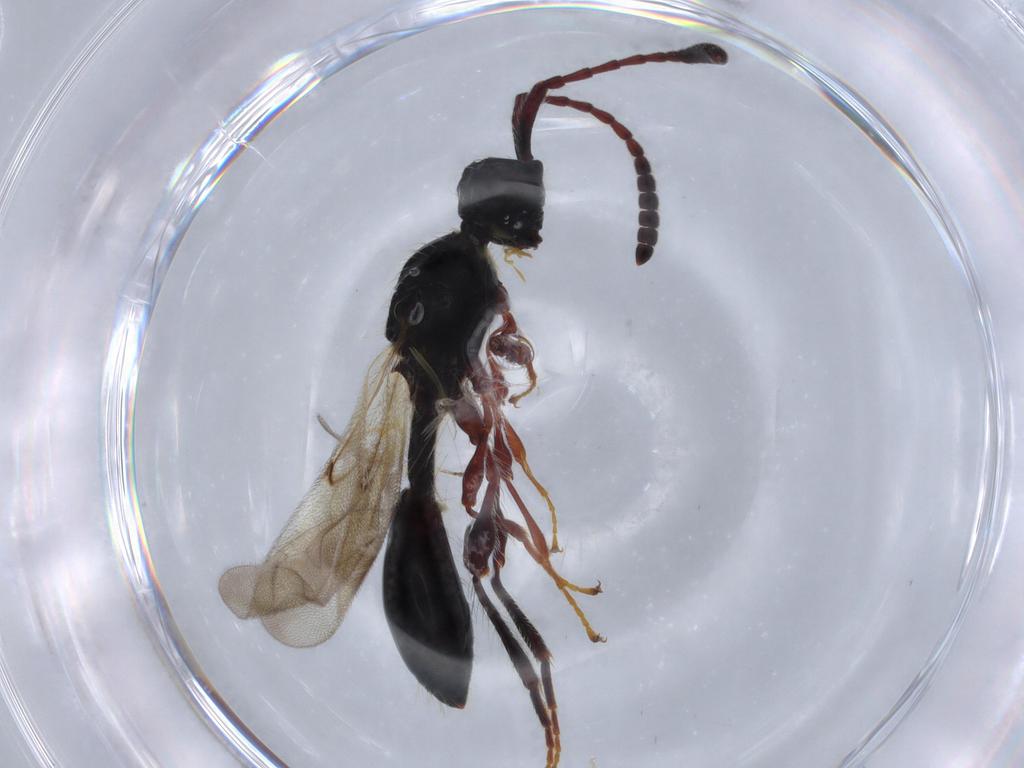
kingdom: Animalia
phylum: Arthropoda
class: Insecta
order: Hymenoptera
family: Diapriidae
